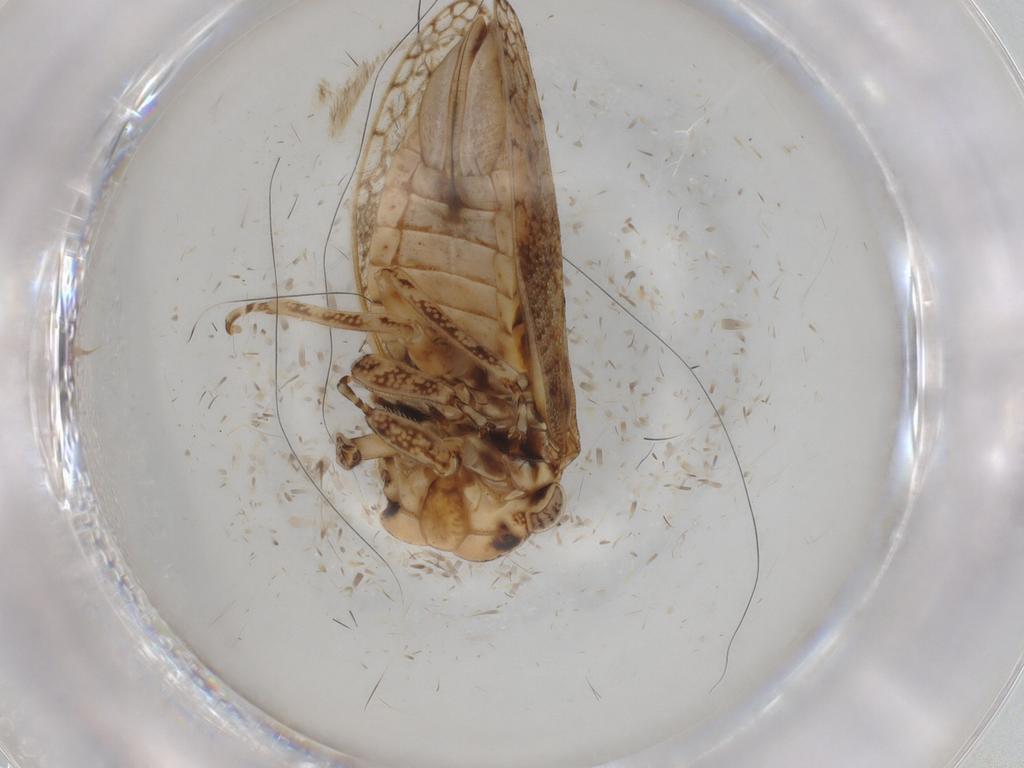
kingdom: Animalia
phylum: Arthropoda
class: Insecta
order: Hemiptera
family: Cicadellidae
